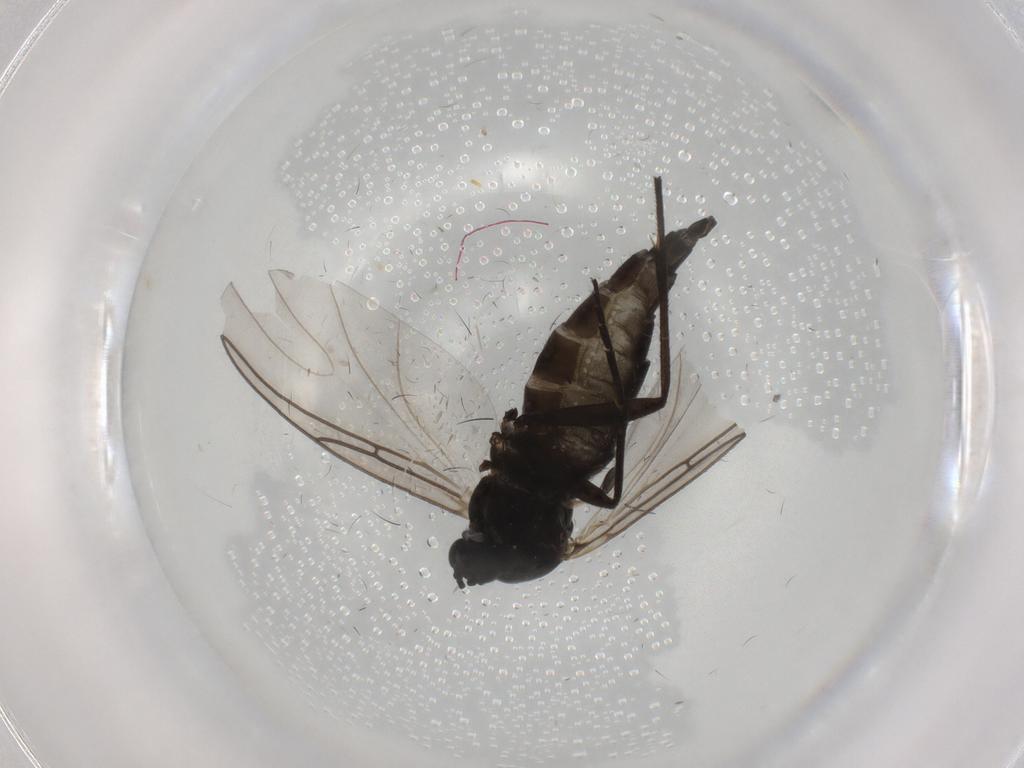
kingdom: Animalia
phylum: Arthropoda
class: Insecta
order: Diptera
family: Sciaridae
